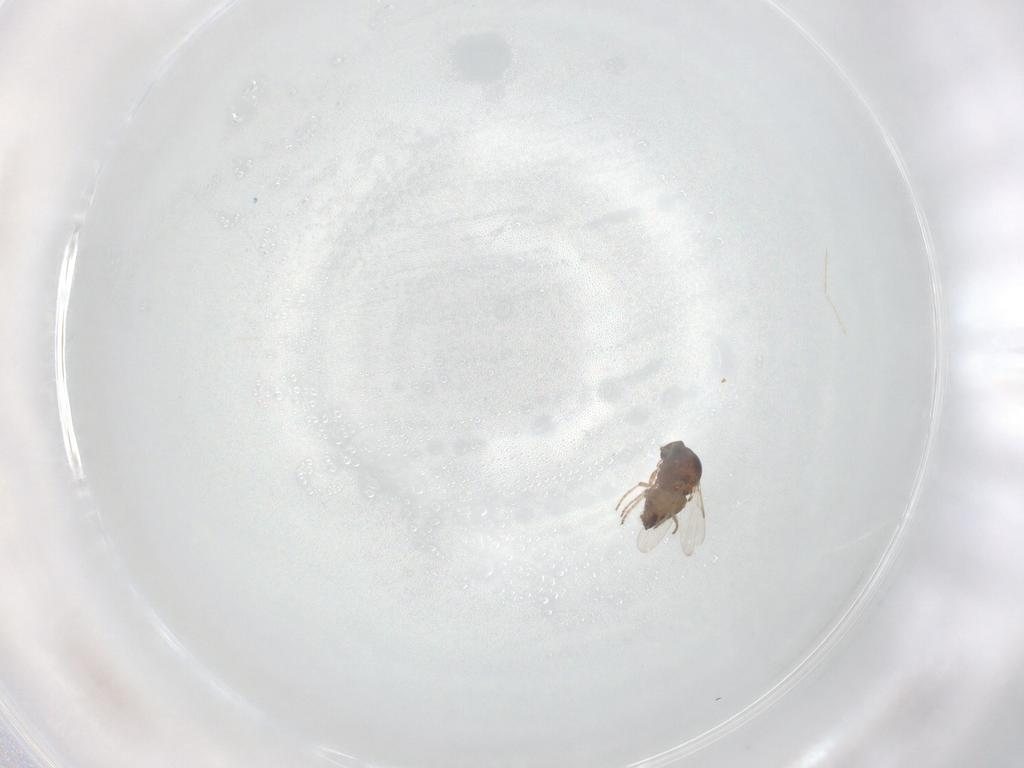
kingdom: Animalia
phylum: Arthropoda
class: Insecta
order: Diptera
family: Ceratopogonidae
